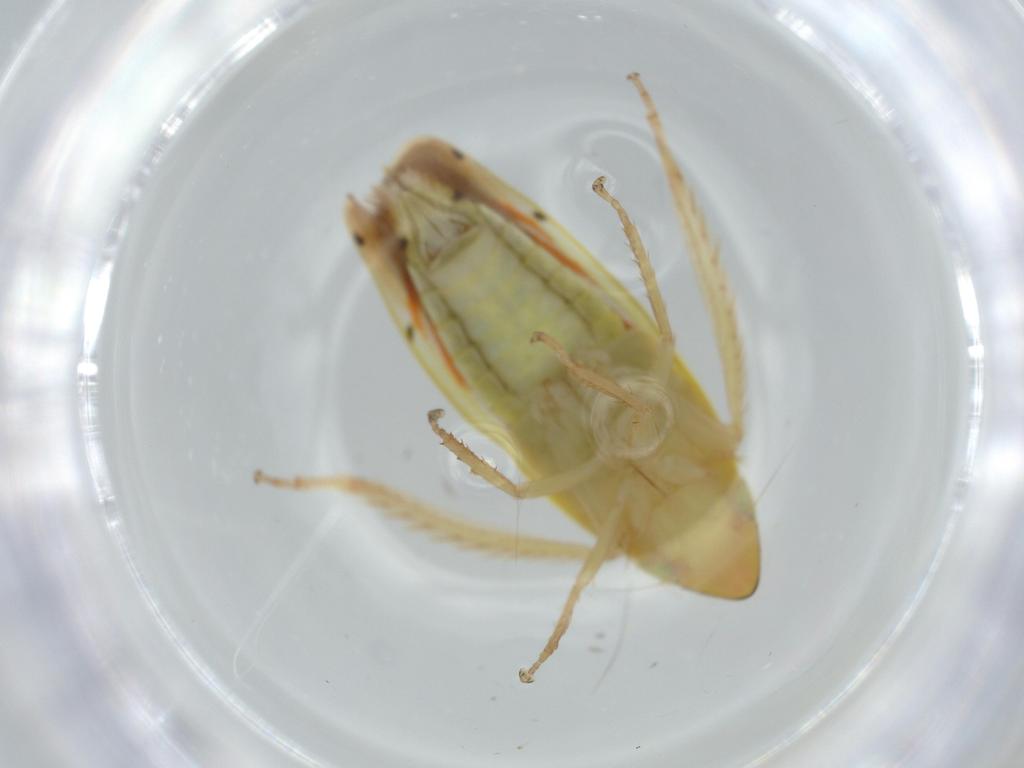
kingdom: Animalia
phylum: Arthropoda
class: Insecta
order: Hemiptera
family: Cicadellidae
